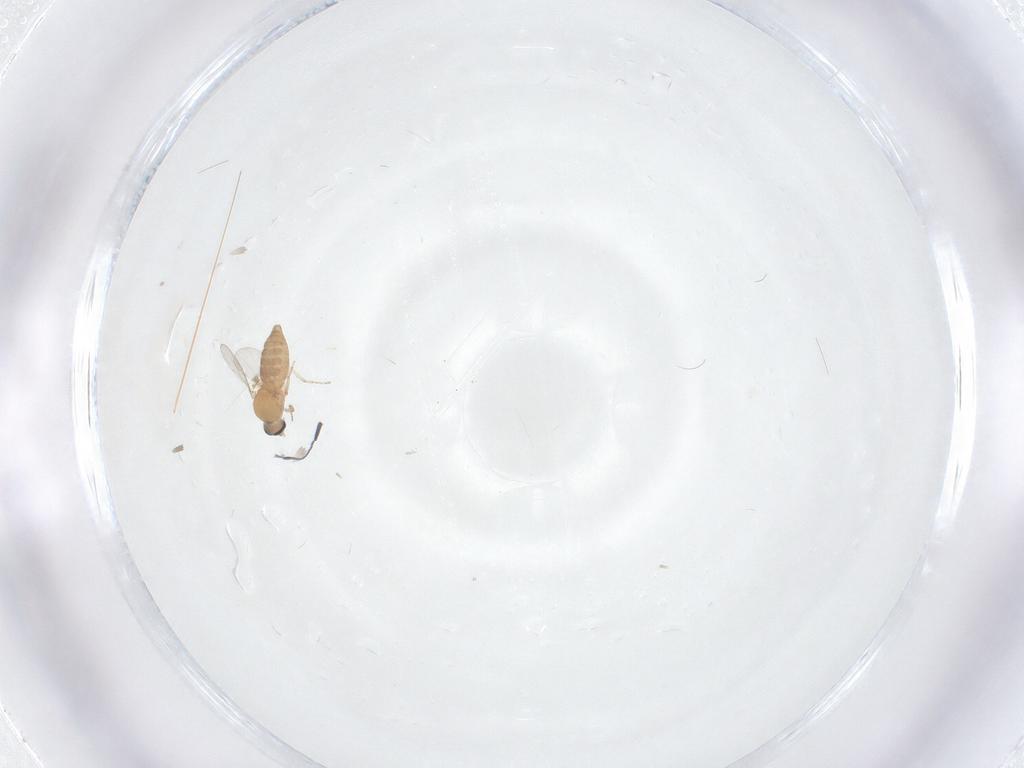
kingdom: Animalia
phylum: Arthropoda
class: Insecta
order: Diptera
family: Ceratopogonidae
